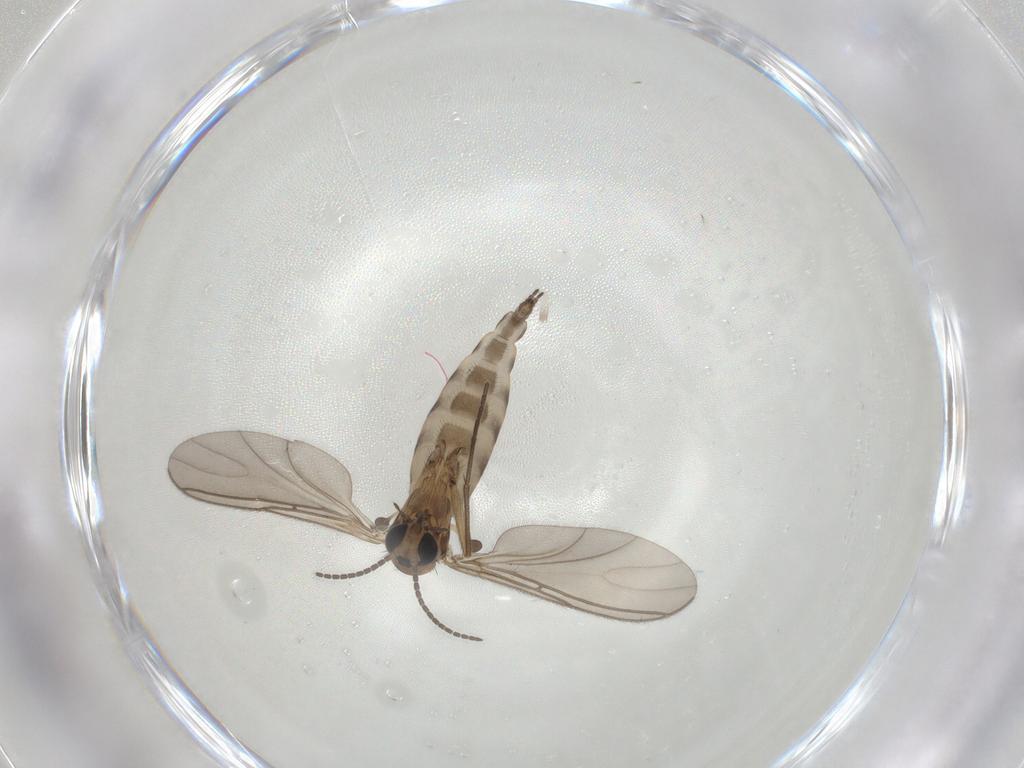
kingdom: Animalia
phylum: Arthropoda
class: Insecta
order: Diptera
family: Sciaridae
